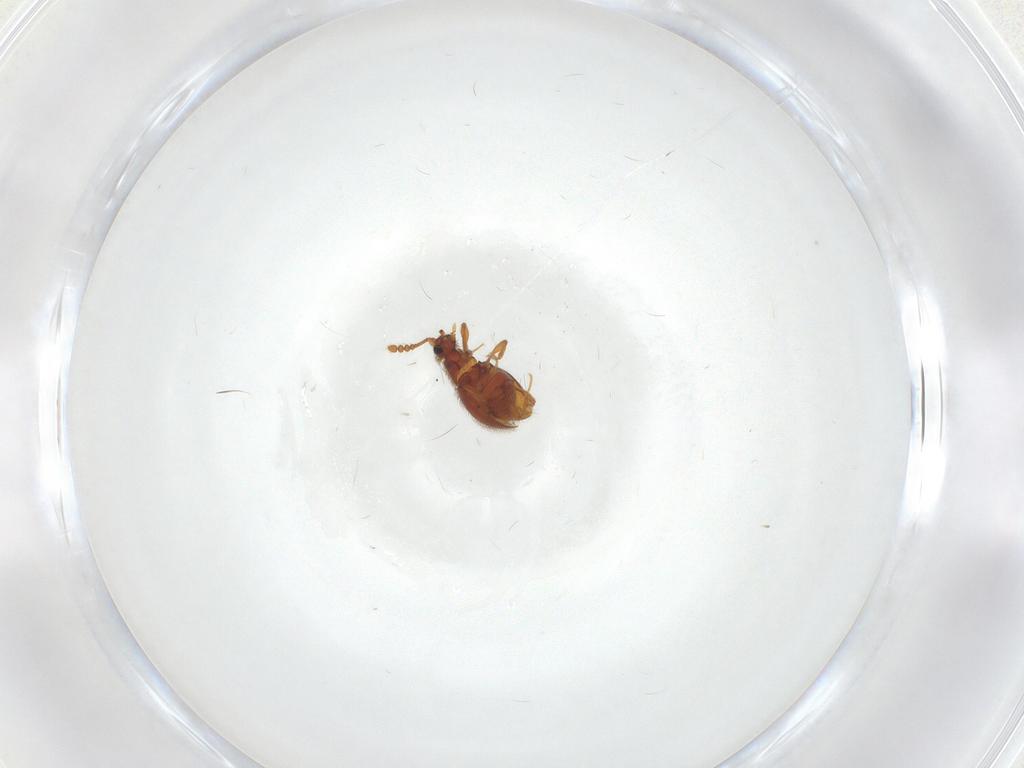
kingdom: Animalia
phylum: Arthropoda
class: Insecta
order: Coleoptera
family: Staphylinidae
